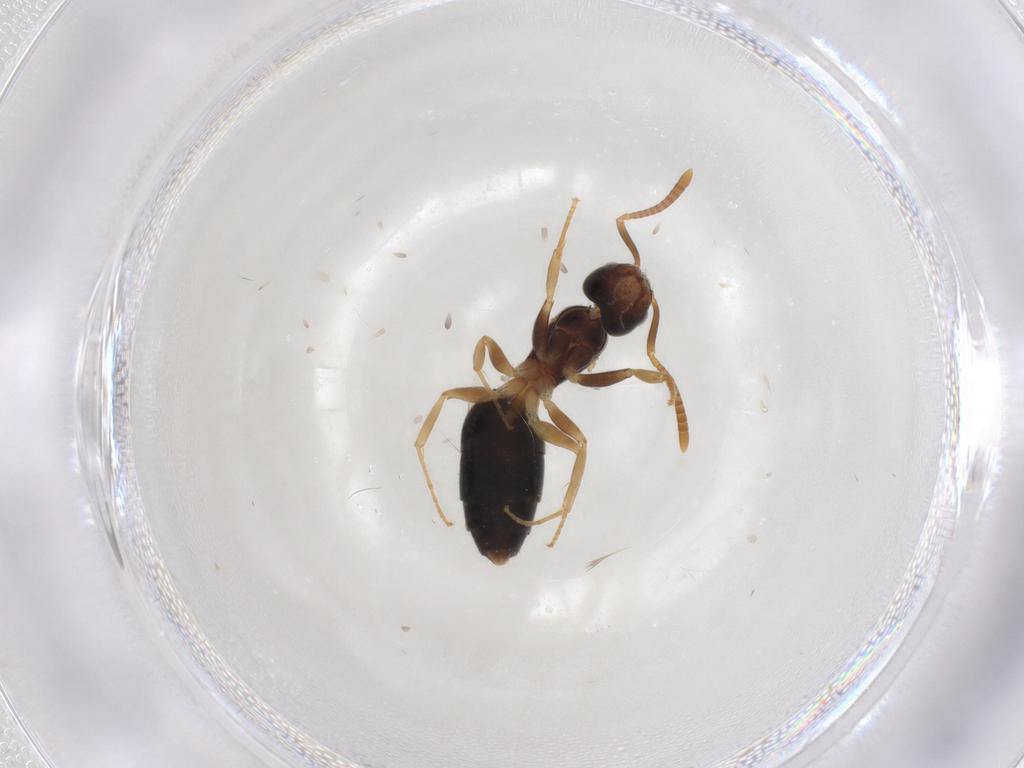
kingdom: Animalia
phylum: Arthropoda
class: Insecta
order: Hymenoptera
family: Formicidae
